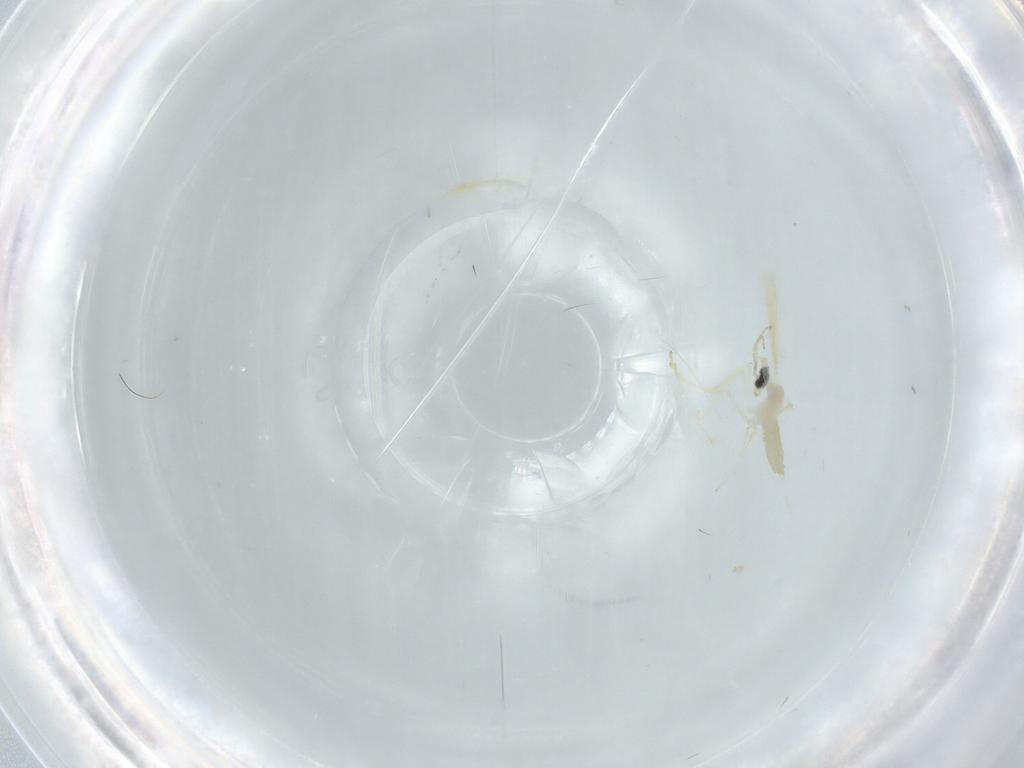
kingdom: Animalia
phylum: Arthropoda
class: Insecta
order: Diptera
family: Cecidomyiidae
